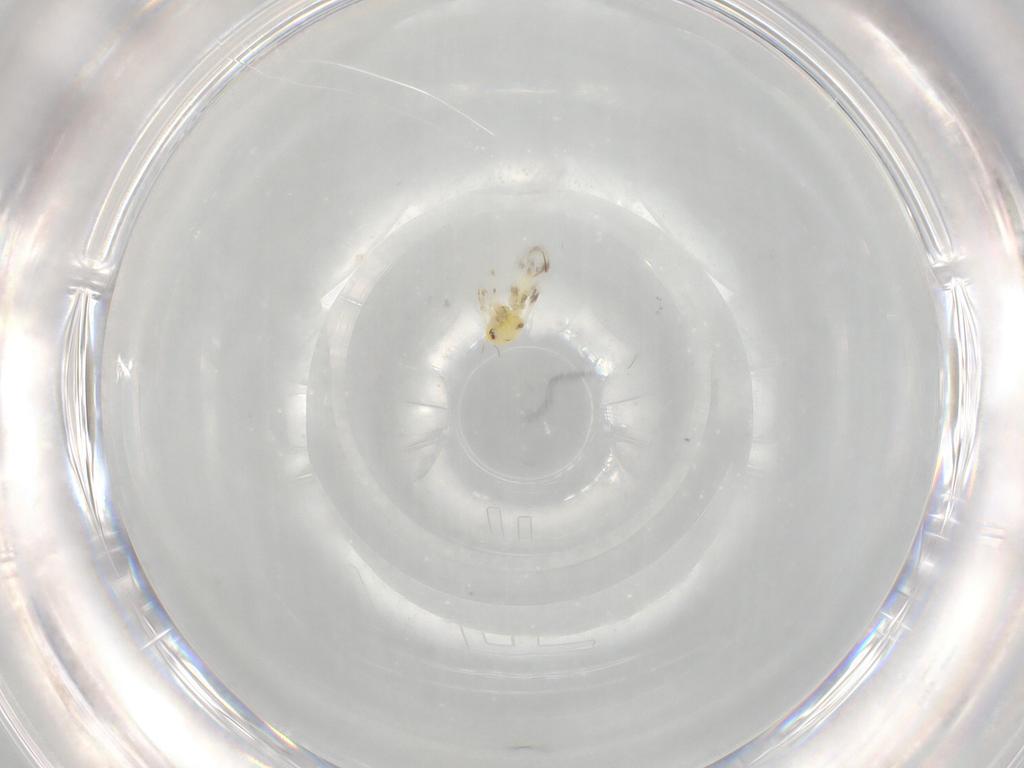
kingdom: Animalia
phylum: Arthropoda
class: Insecta
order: Hemiptera
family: Aleyrodidae
